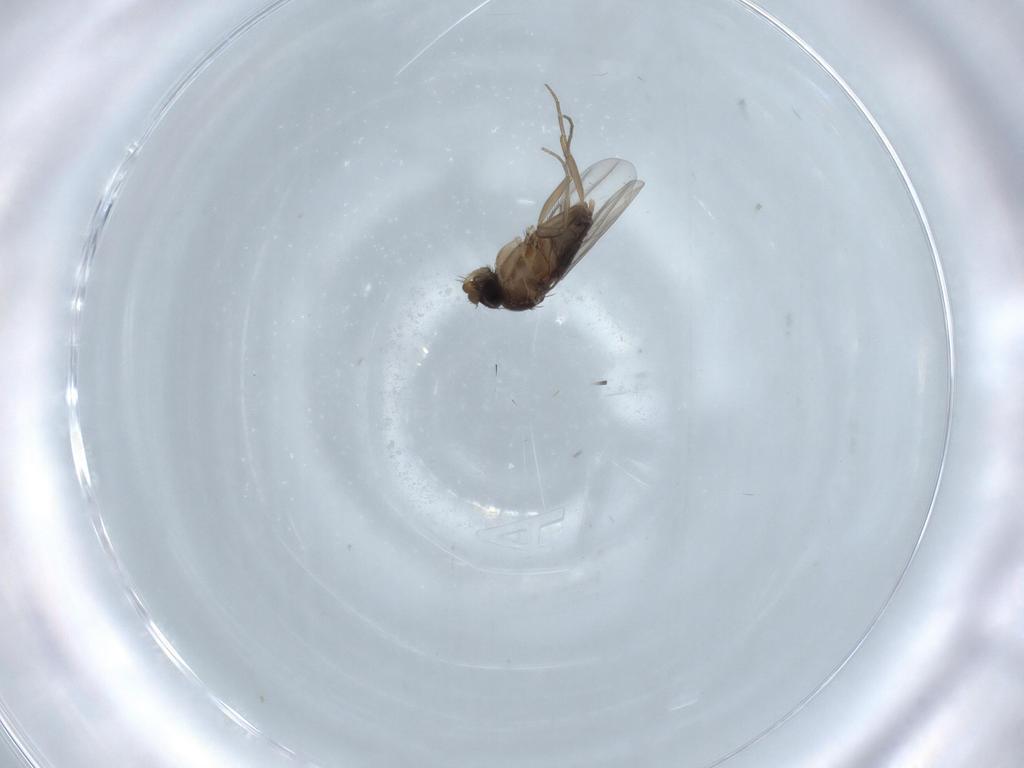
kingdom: Animalia
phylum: Arthropoda
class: Insecta
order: Diptera
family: Phoridae
